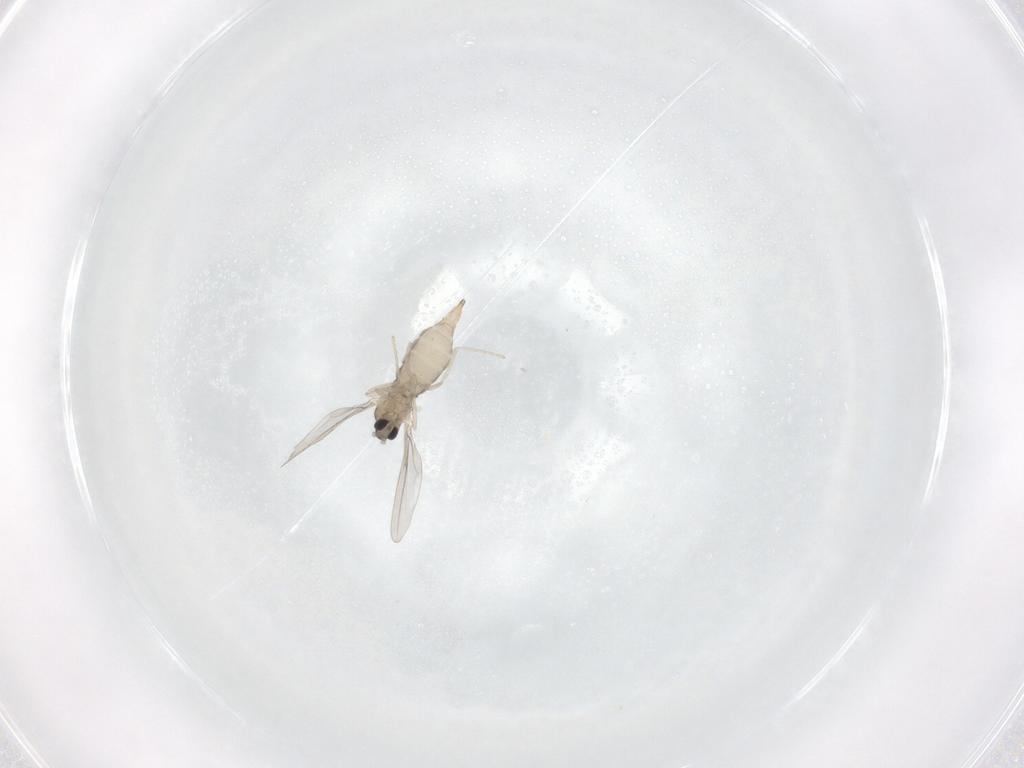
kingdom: Animalia
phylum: Arthropoda
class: Insecta
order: Diptera
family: Cecidomyiidae
